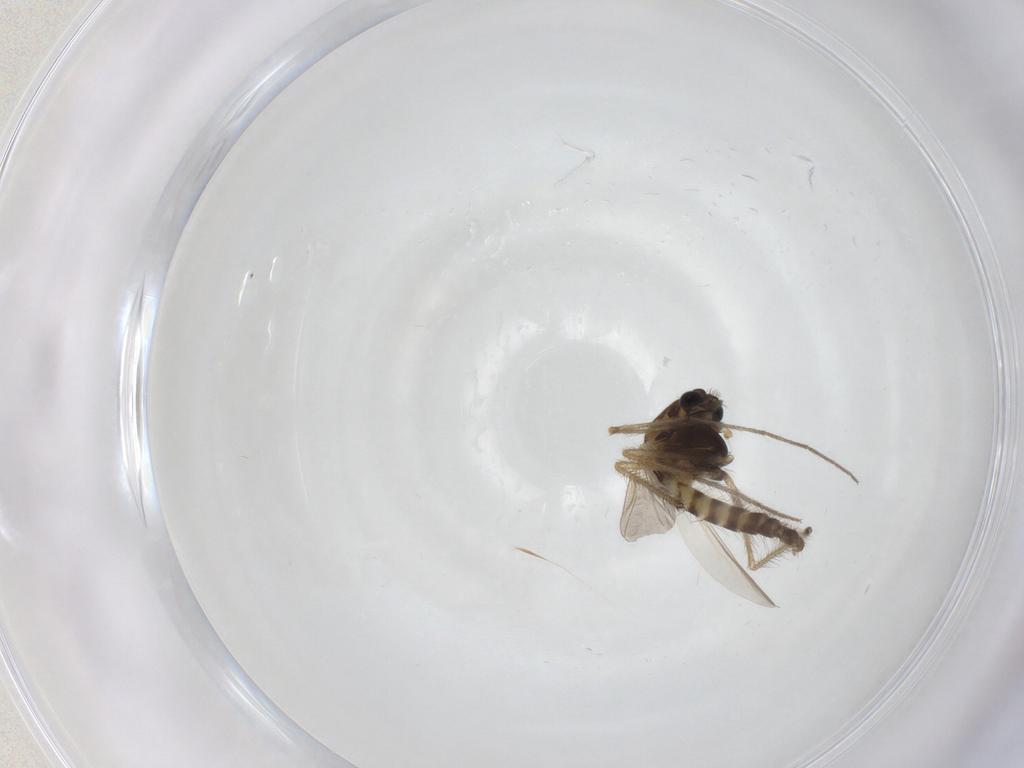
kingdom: Animalia
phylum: Arthropoda
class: Insecta
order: Diptera
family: Chironomidae
